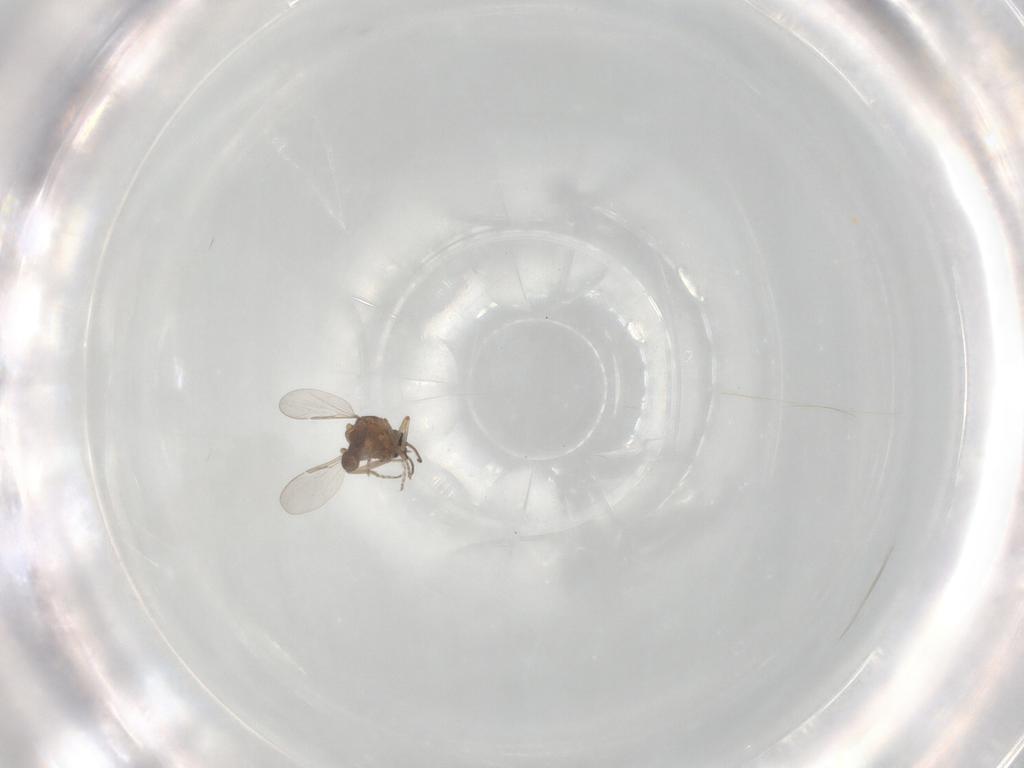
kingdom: Animalia
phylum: Arthropoda
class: Insecta
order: Diptera
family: Ceratopogonidae
